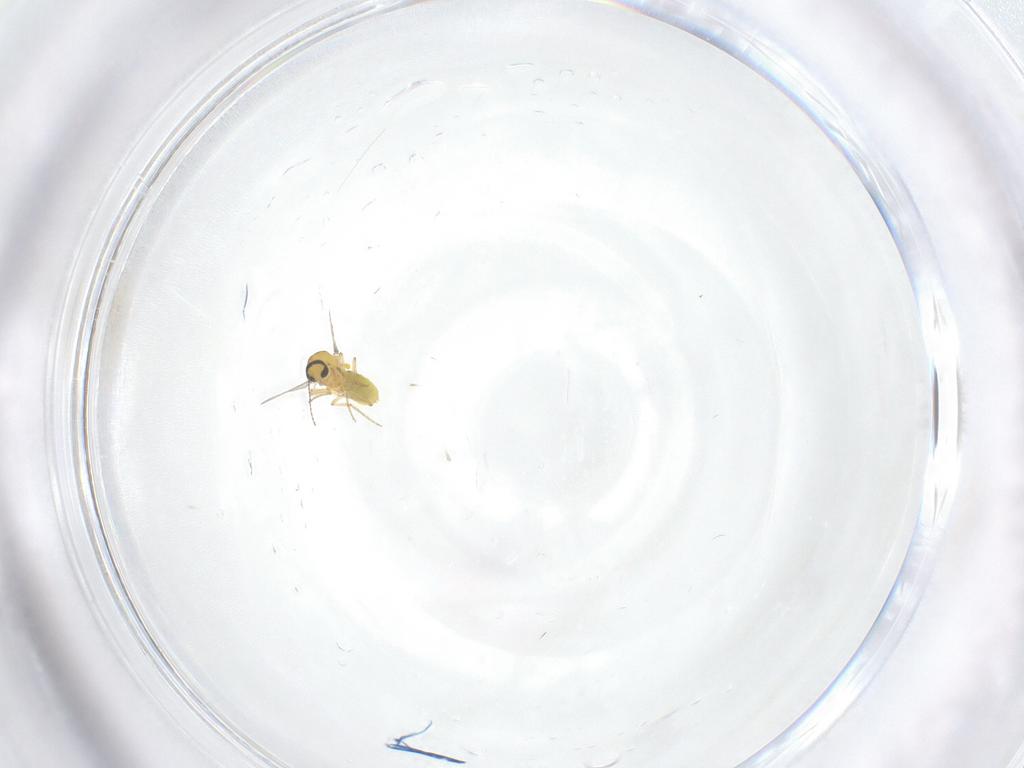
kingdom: Animalia
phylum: Arthropoda
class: Insecta
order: Diptera
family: Ceratopogonidae
